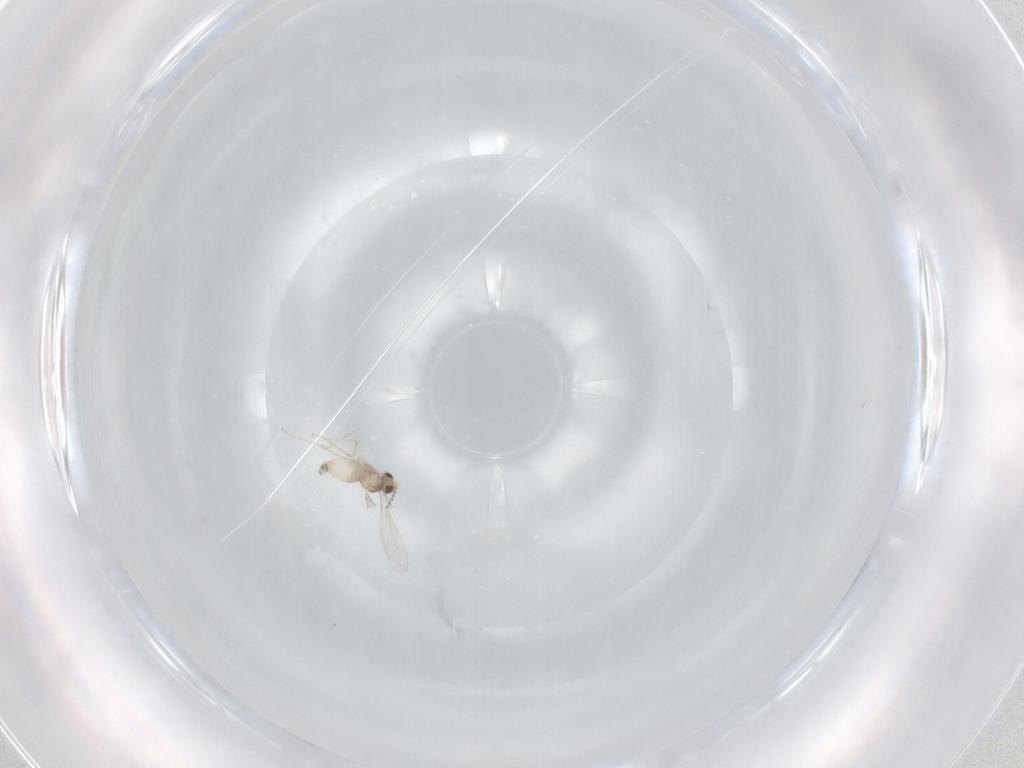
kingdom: Animalia
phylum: Arthropoda
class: Insecta
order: Diptera
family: Cecidomyiidae
